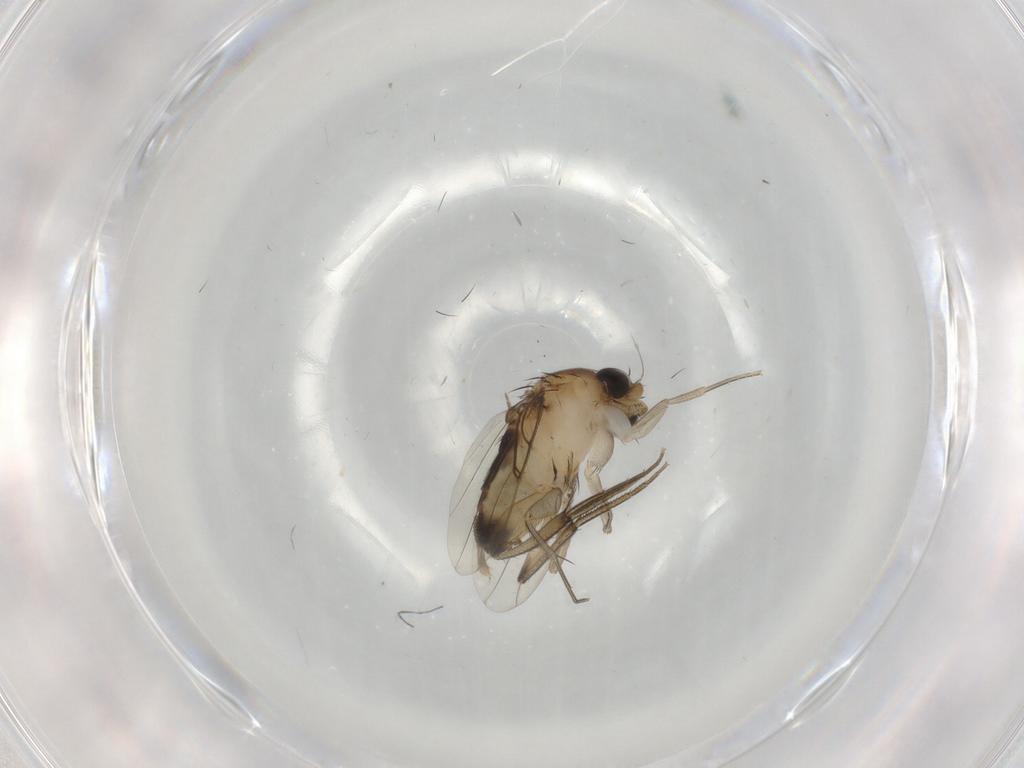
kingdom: Animalia
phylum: Arthropoda
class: Insecta
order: Diptera
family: Phoridae
